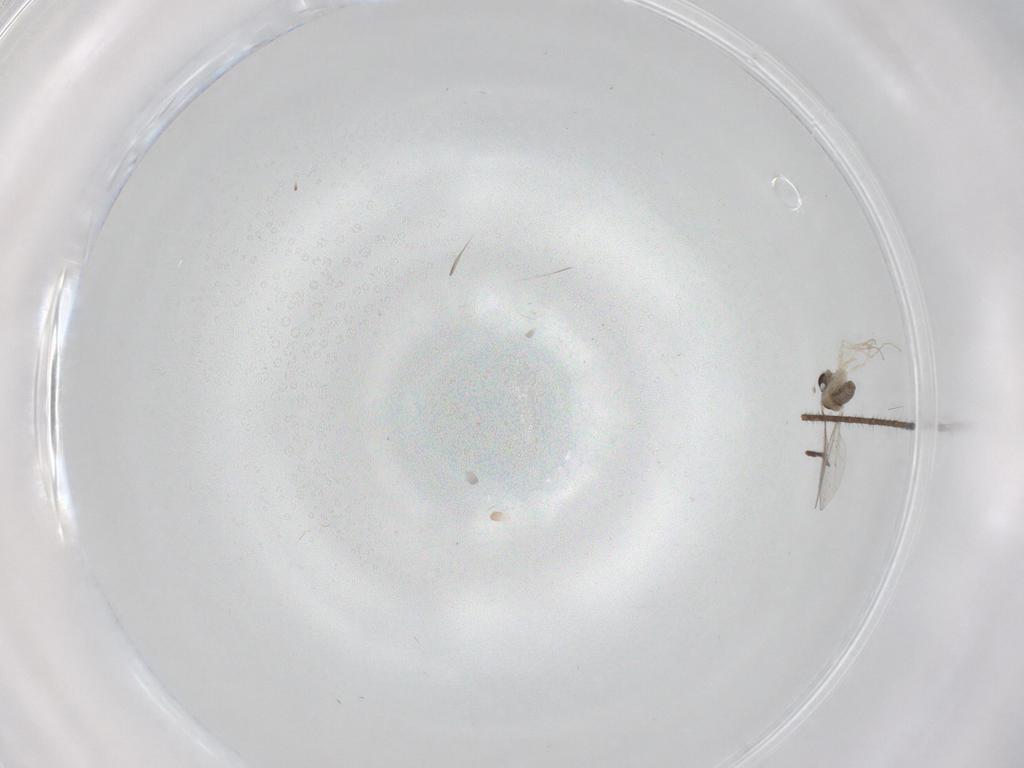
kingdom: Animalia
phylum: Arthropoda
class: Insecta
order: Diptera
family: Cecidomyiidae
